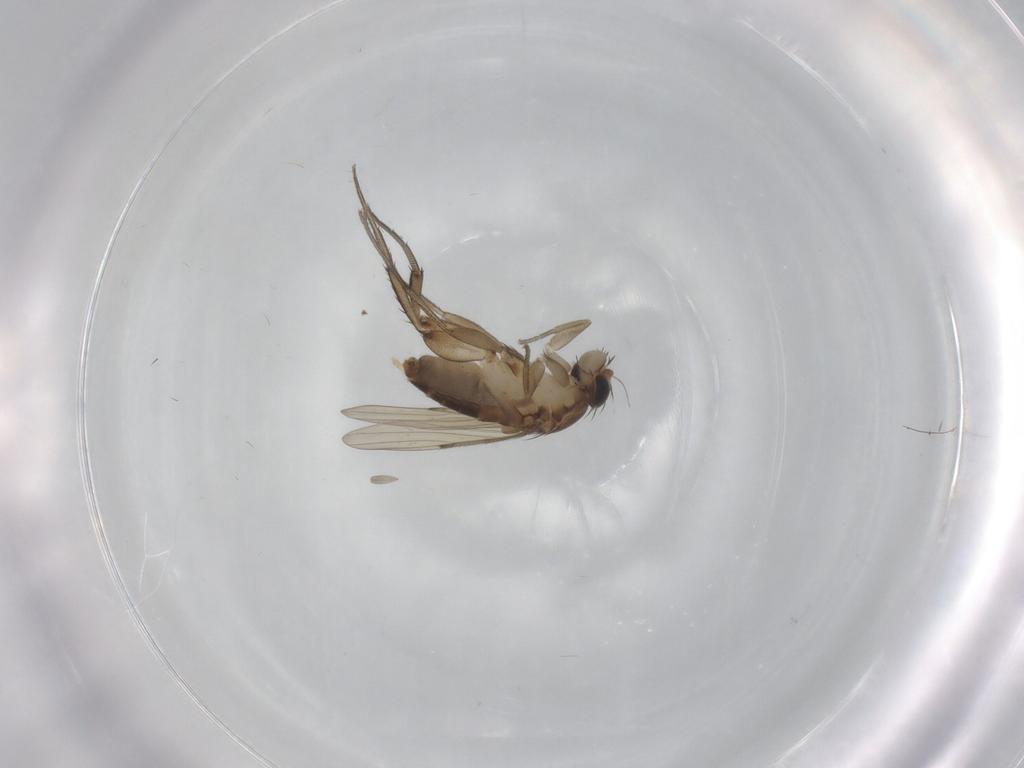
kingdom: Animalia
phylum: Arthropoda
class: Insecta
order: Diptera
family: Phoridae
